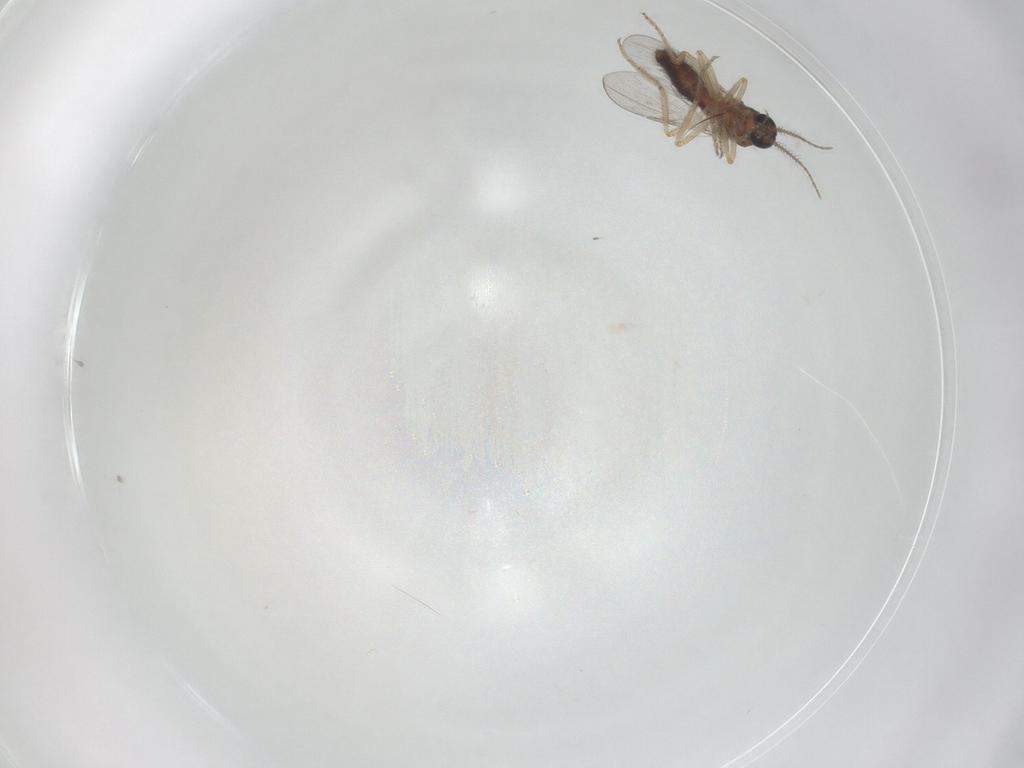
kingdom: Animalia
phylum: Arthropoda
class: Insecta
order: Diptera
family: Ceratopogonidae
